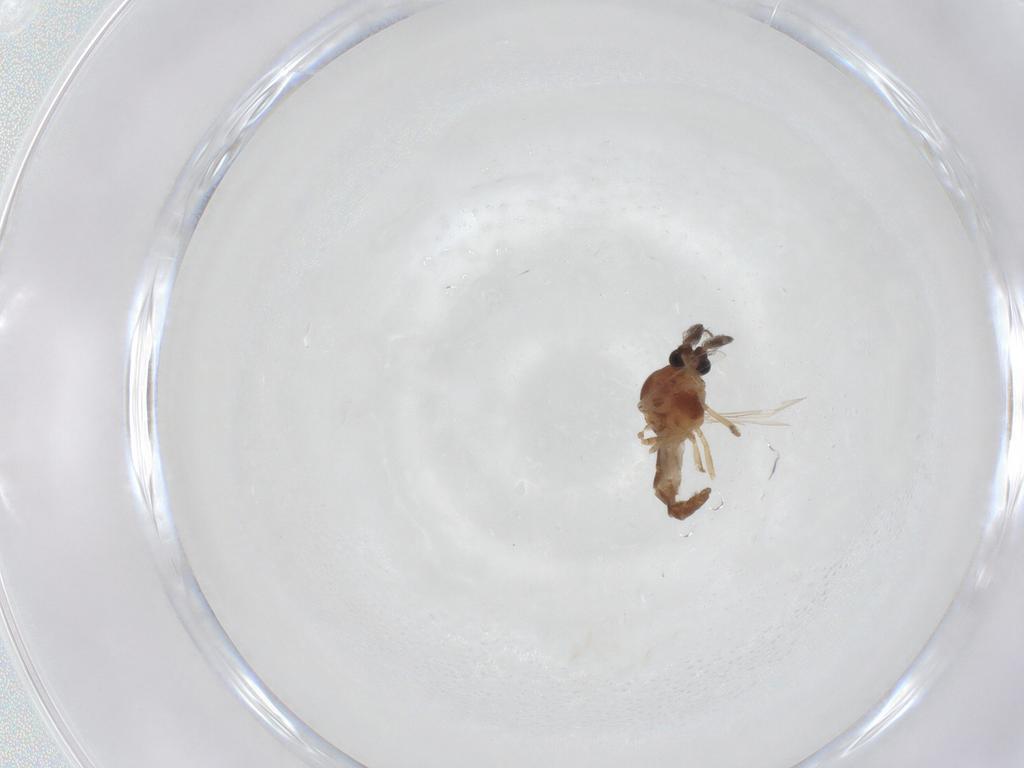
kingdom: Animalia
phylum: Arthropoda
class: Insecta
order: Diptera
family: Ceratopogonidae
